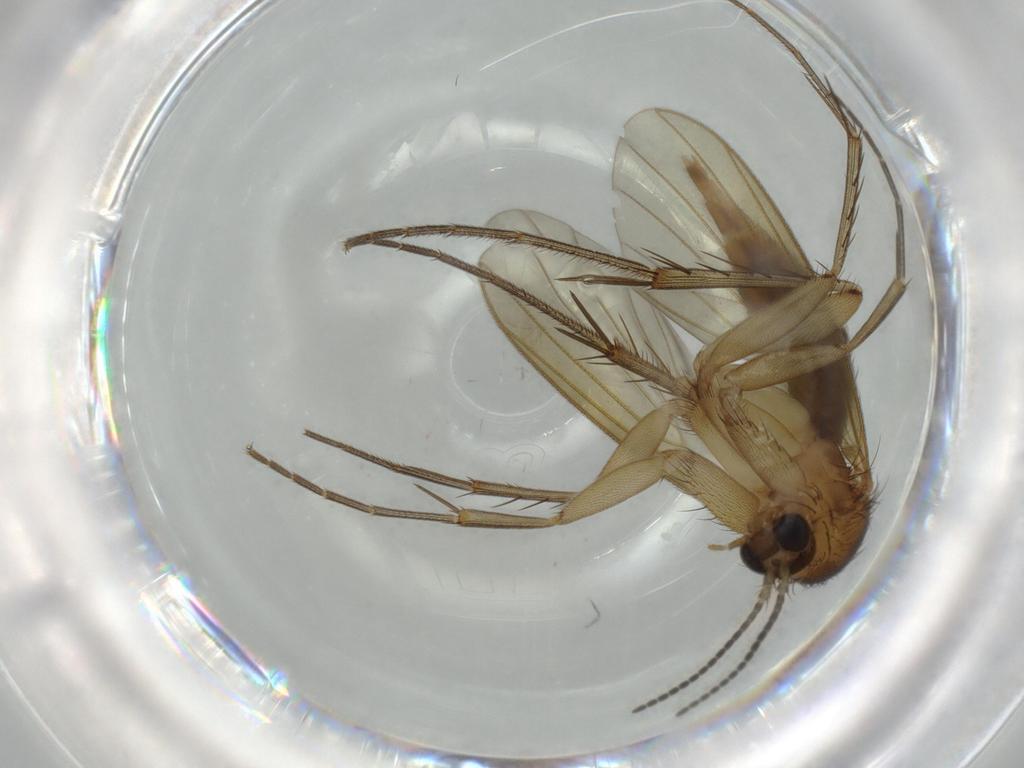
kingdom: Animalia
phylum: Arthropoda
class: Insecta
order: Diptera
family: Mycetophilidae
